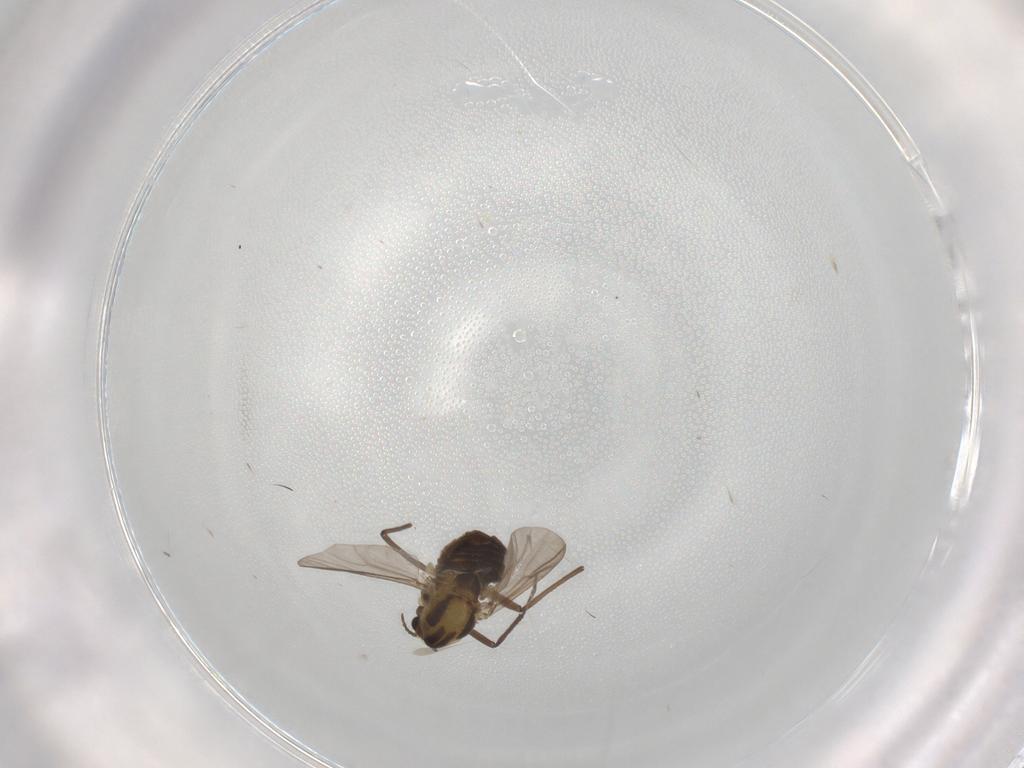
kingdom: Animalia
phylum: Arthropoda
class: Insecta
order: Diptera
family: Chironomidae
